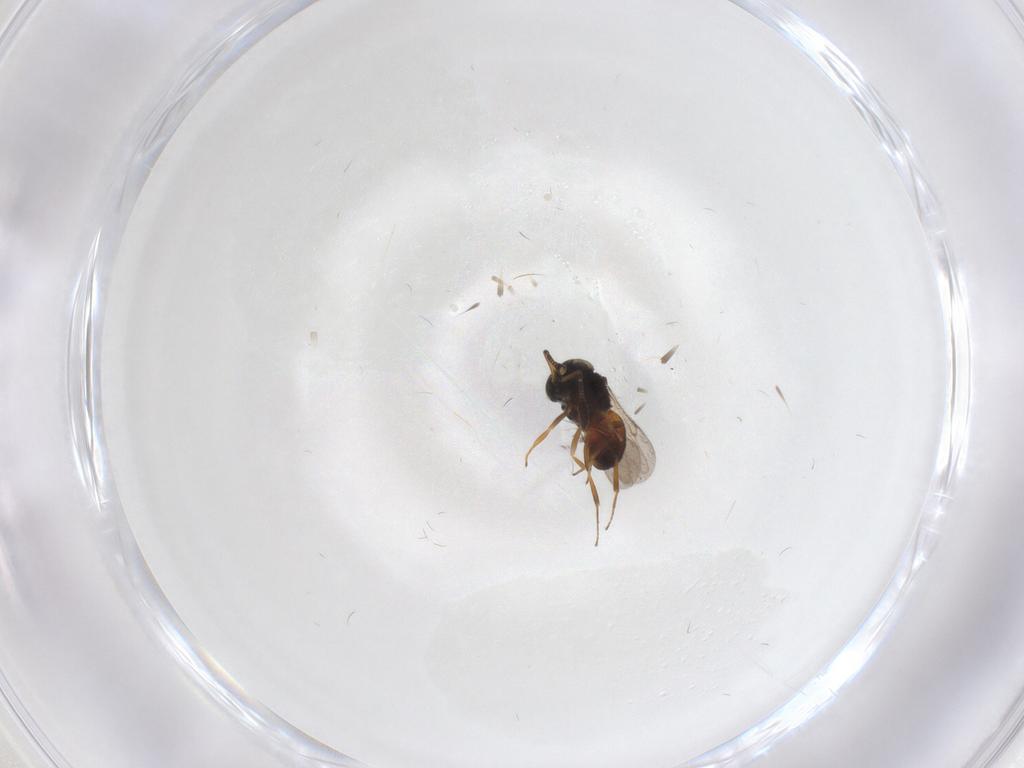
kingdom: Animalia
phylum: Arthropoda
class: Insecta
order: Hymenoptera
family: Scelionidae
